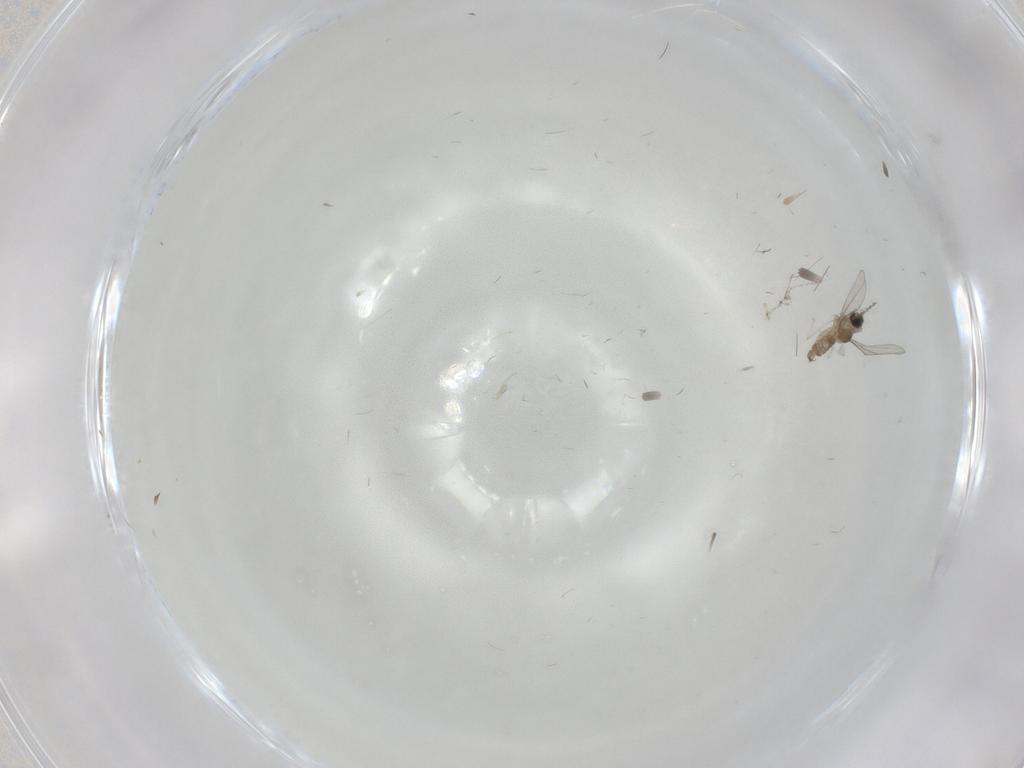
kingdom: Animalia
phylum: Arthropoda
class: Insecta
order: Diptera
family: Cecidomyiidae
